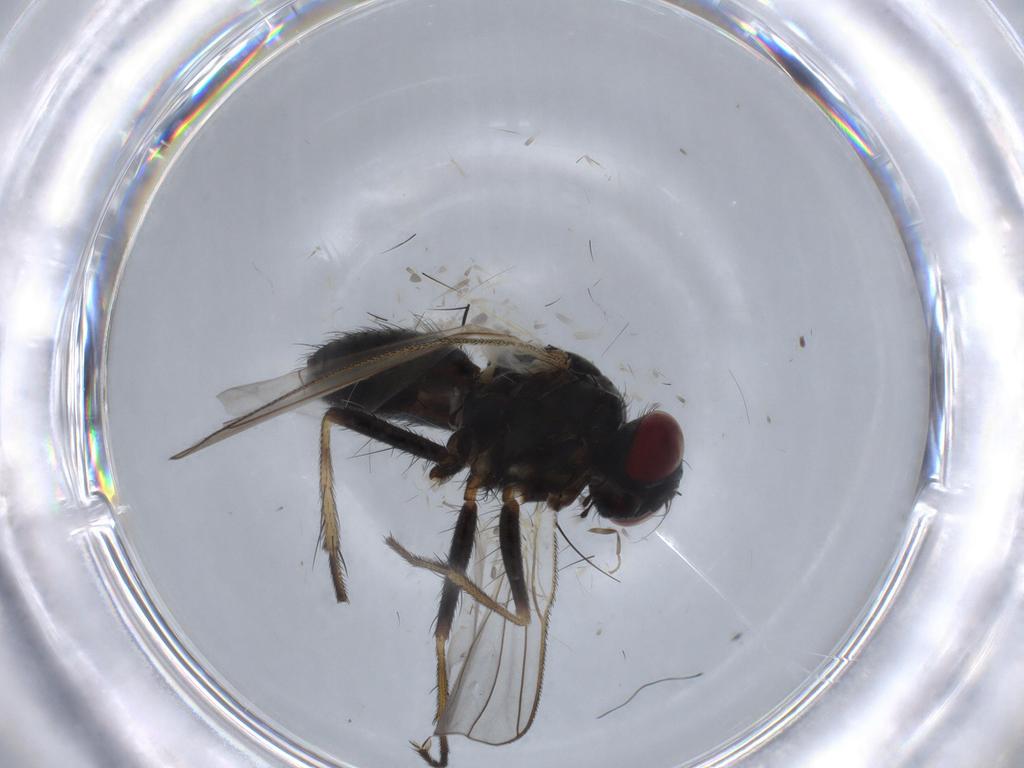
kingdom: Animalia
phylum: Arthropoda
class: Insecta
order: Diptera
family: Muscidae
